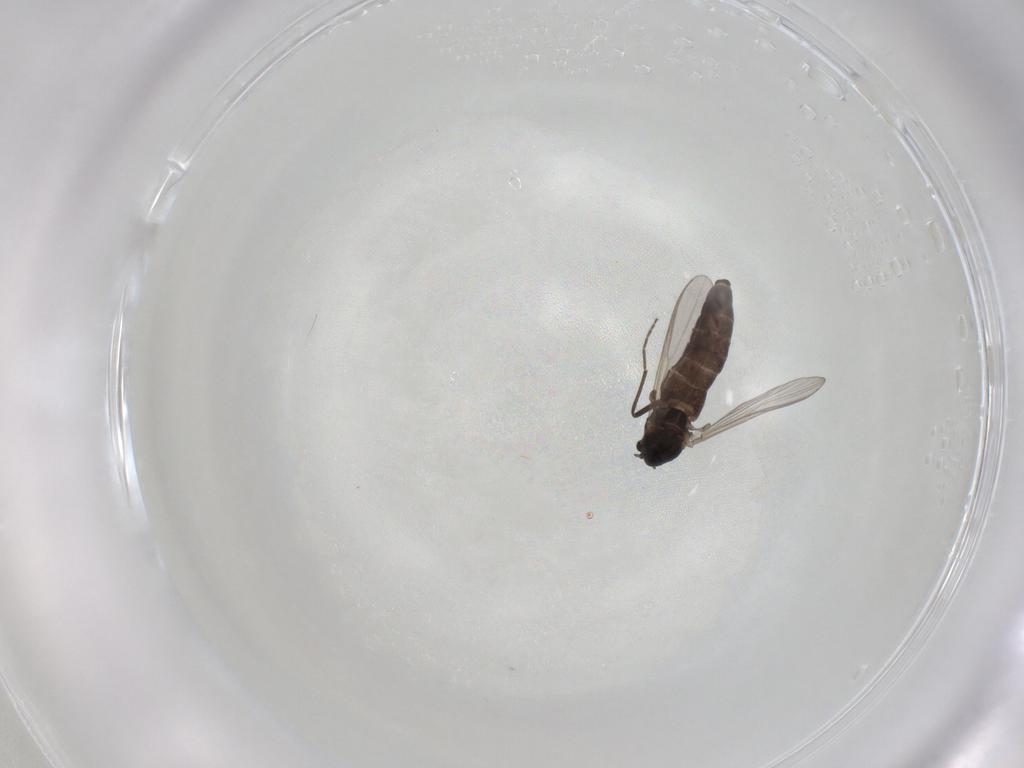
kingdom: Animalia
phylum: Arthropoda
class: Insecta
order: Diptera
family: Chironomidae
